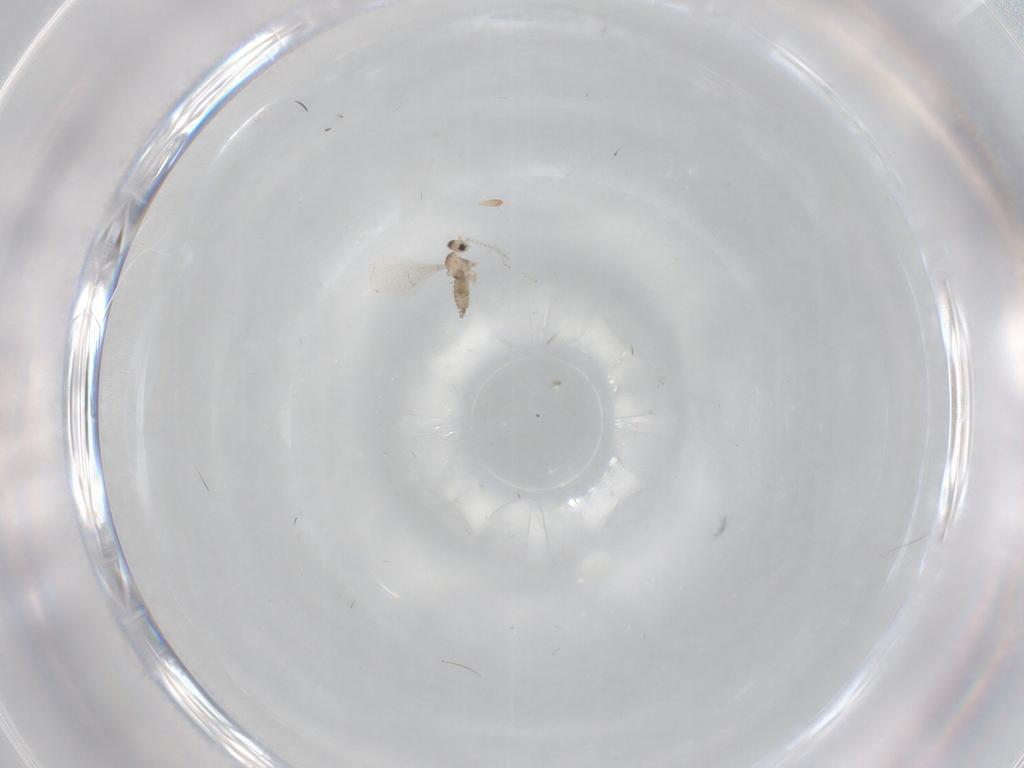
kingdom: Animalia
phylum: Arthropoda
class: Insecta
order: Diptera
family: Cecidomyiidae
